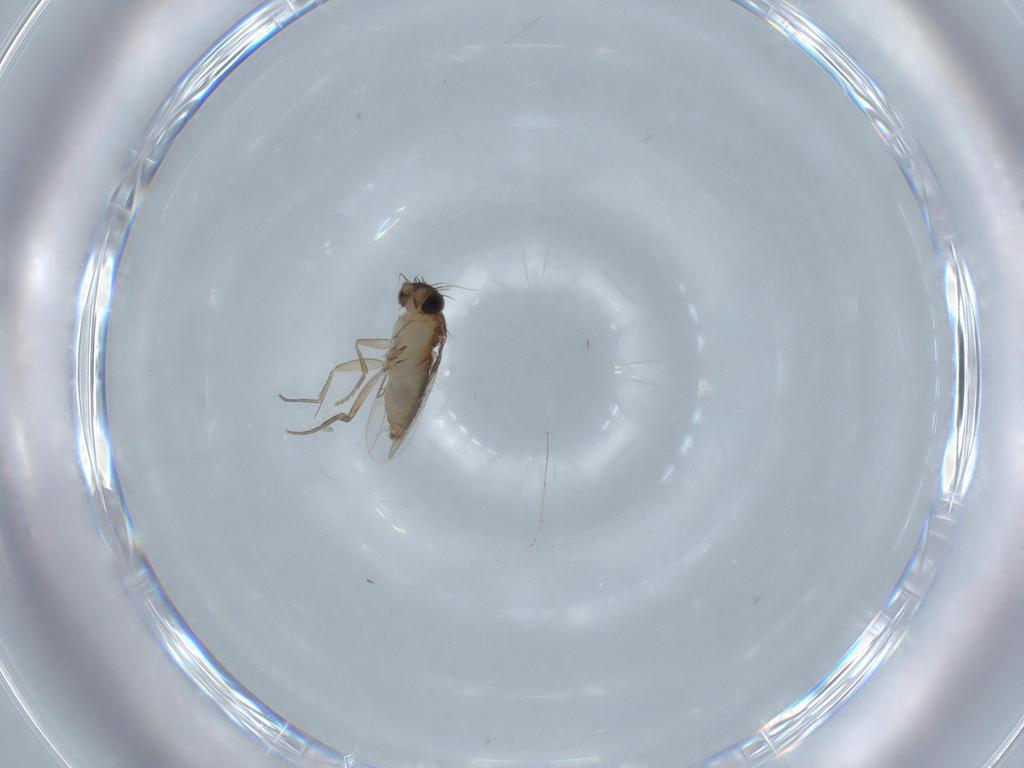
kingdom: Animalia
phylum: Arthropoda
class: Insecta
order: Diptera
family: Phoridae
